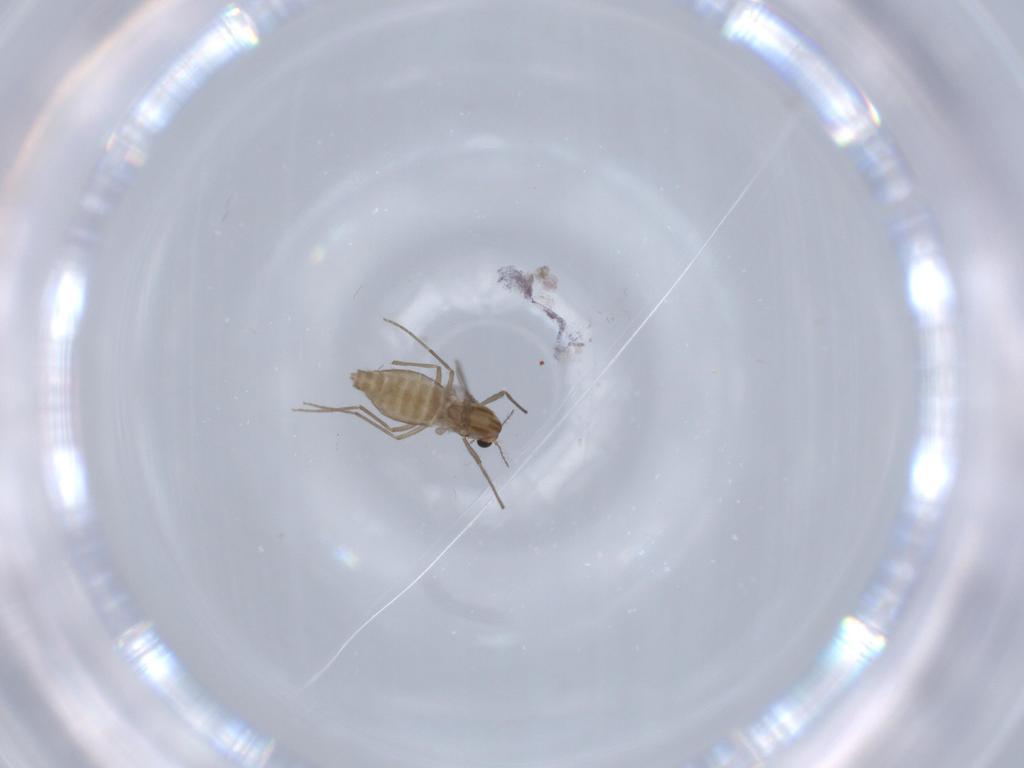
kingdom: Animalia
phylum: Arthropoda
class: Insecta
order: Diptera
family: Chironomidae
